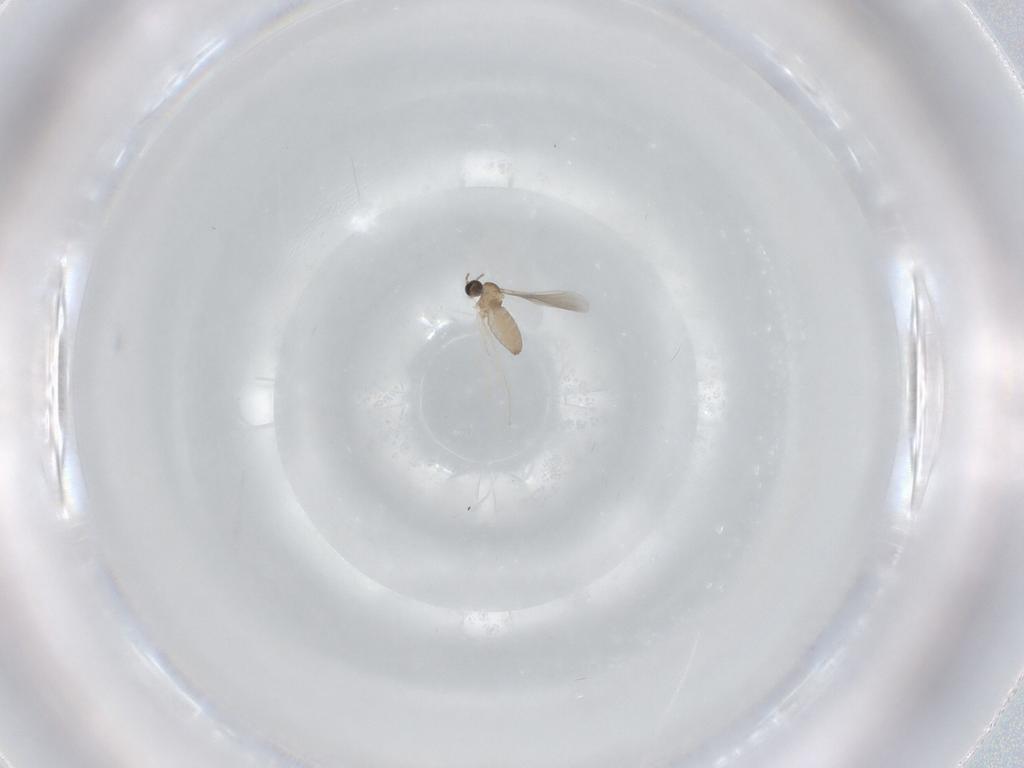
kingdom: Animalia
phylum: Arthropoda
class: Insecta
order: Diptera
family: Cecidomyiidae
